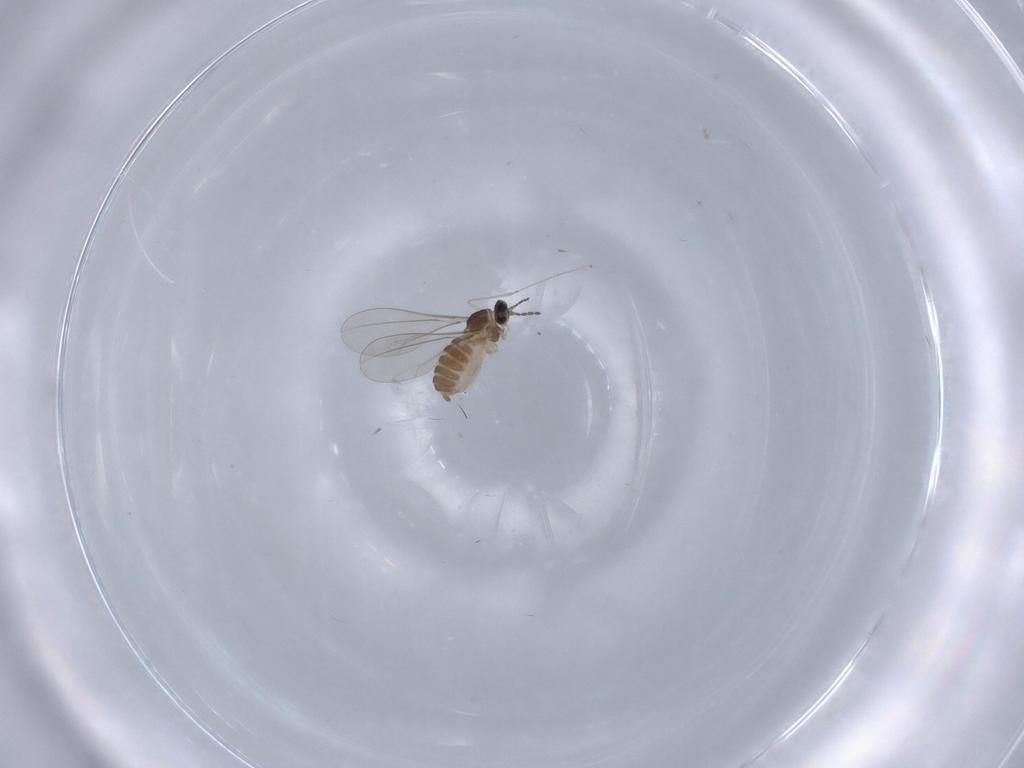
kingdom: Animalia
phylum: Arthropoda
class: Insecta
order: Diptera
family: Cecidomyiidae
